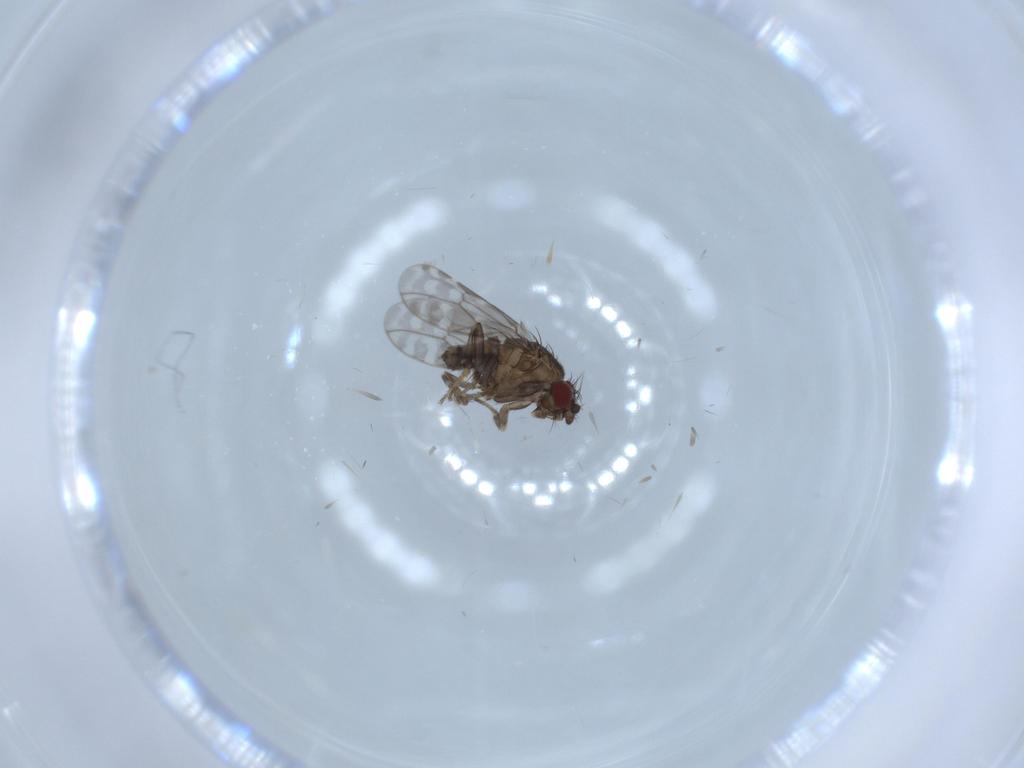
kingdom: Animalia
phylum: Arthropoda
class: Insecta
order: Diptera
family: Sphaeroceridae
